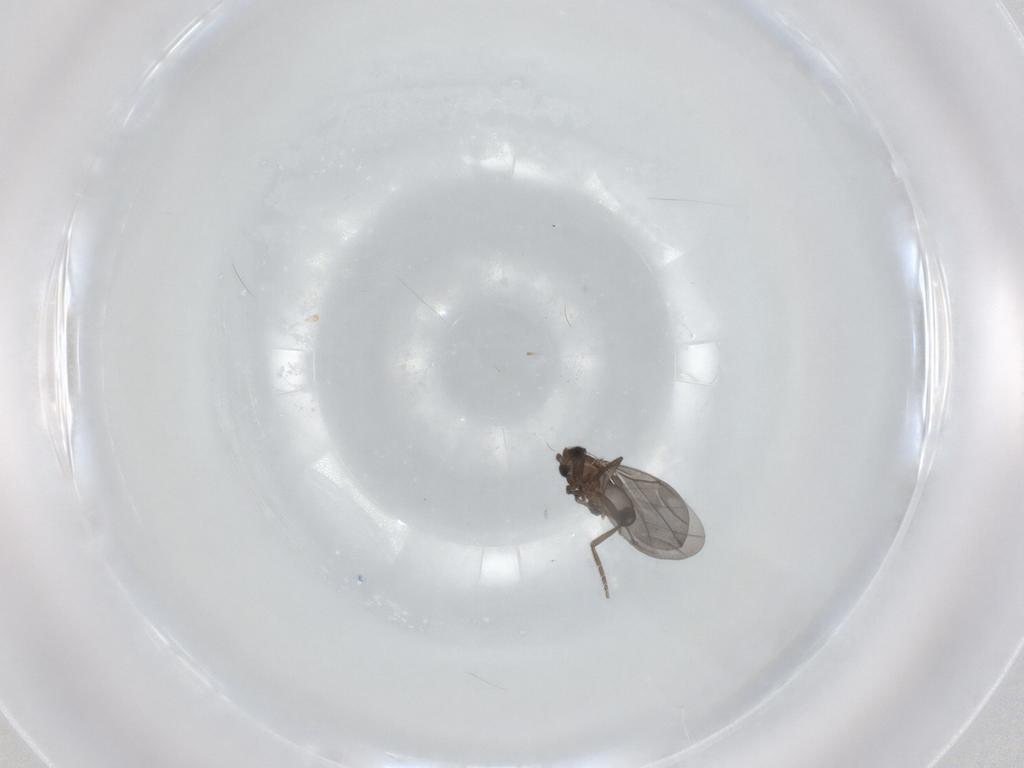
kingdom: Animalia
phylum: Arthropoda
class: Insecta
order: Diptera
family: Phoridae
